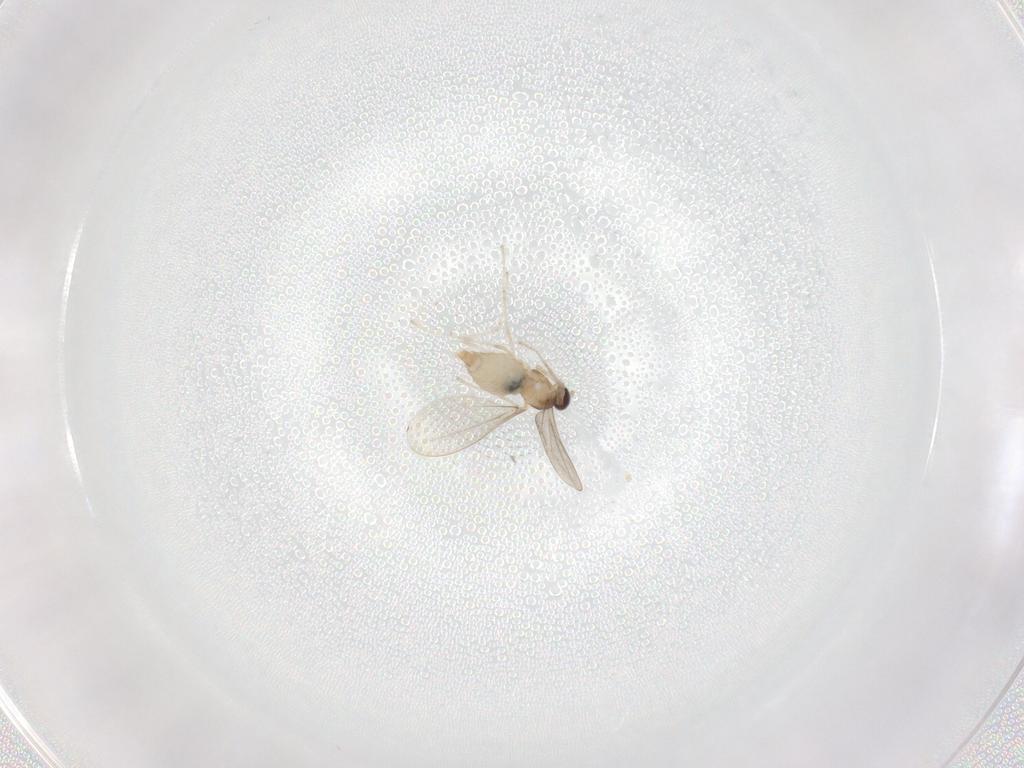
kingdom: Animalia
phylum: Arthropoda
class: Insecta
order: Diptera
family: Cecidomyiidae
